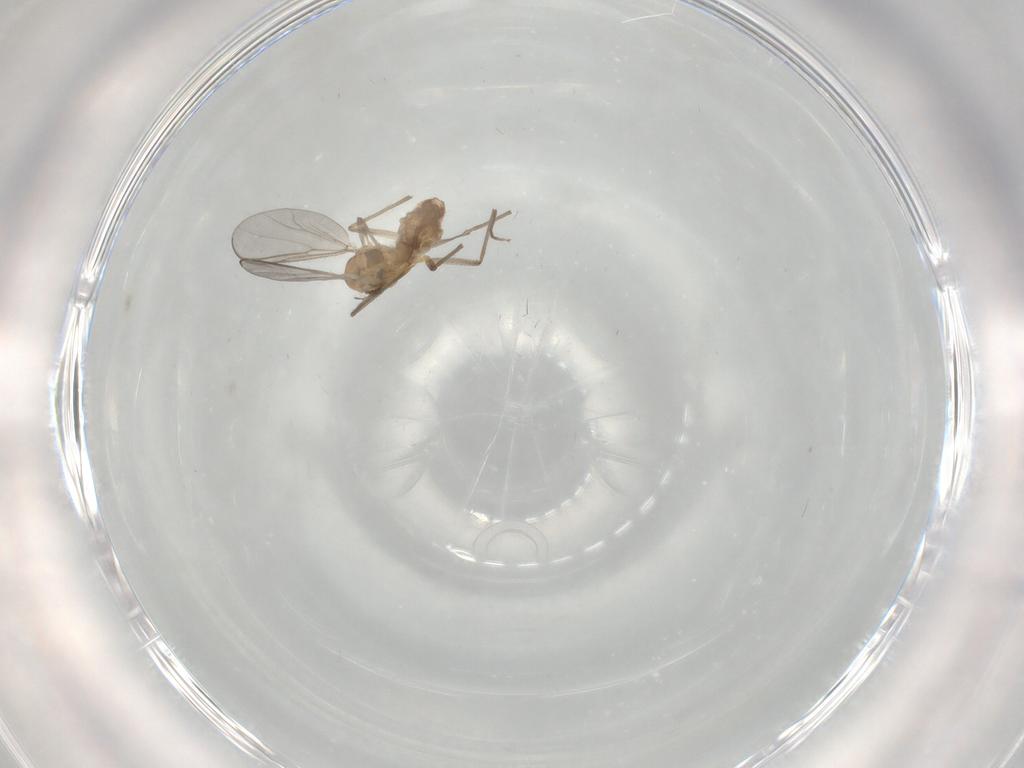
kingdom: Animalia
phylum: Arthropoda
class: Insecta
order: Diptera
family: Chironomidae
